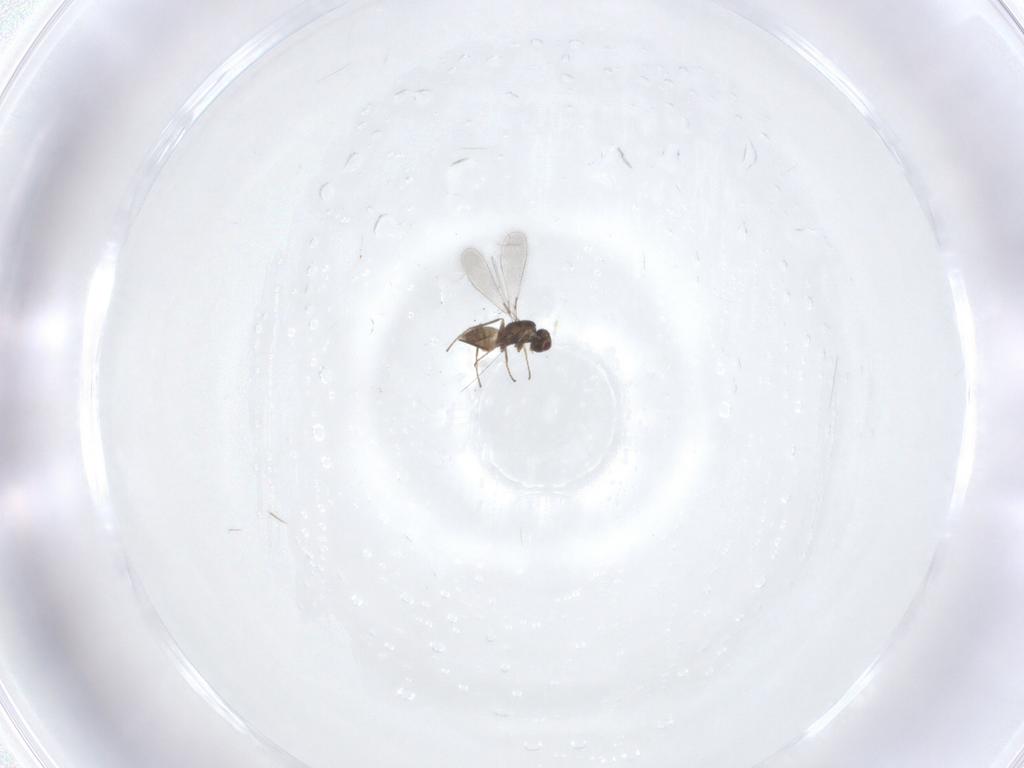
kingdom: Animalia
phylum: Arthropoda
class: Insecta
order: Hymenoptera
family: Mymaridae
